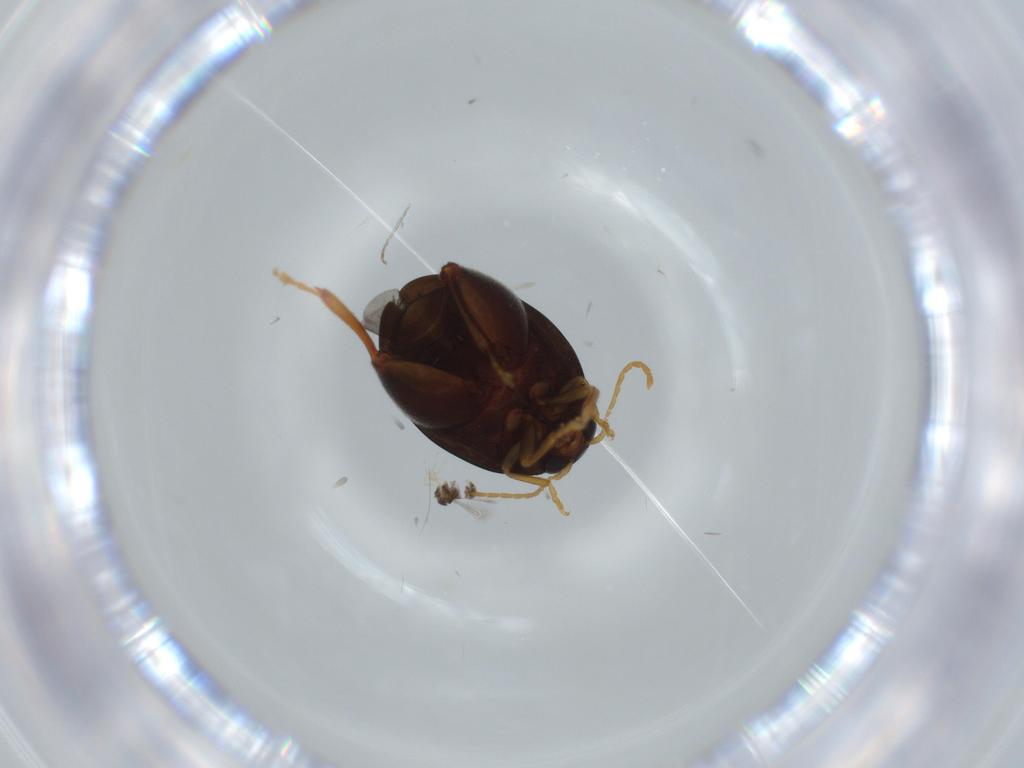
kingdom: Animalia
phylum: Arthropoda
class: Insecta
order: Coleoptera
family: Chrysomelidae
